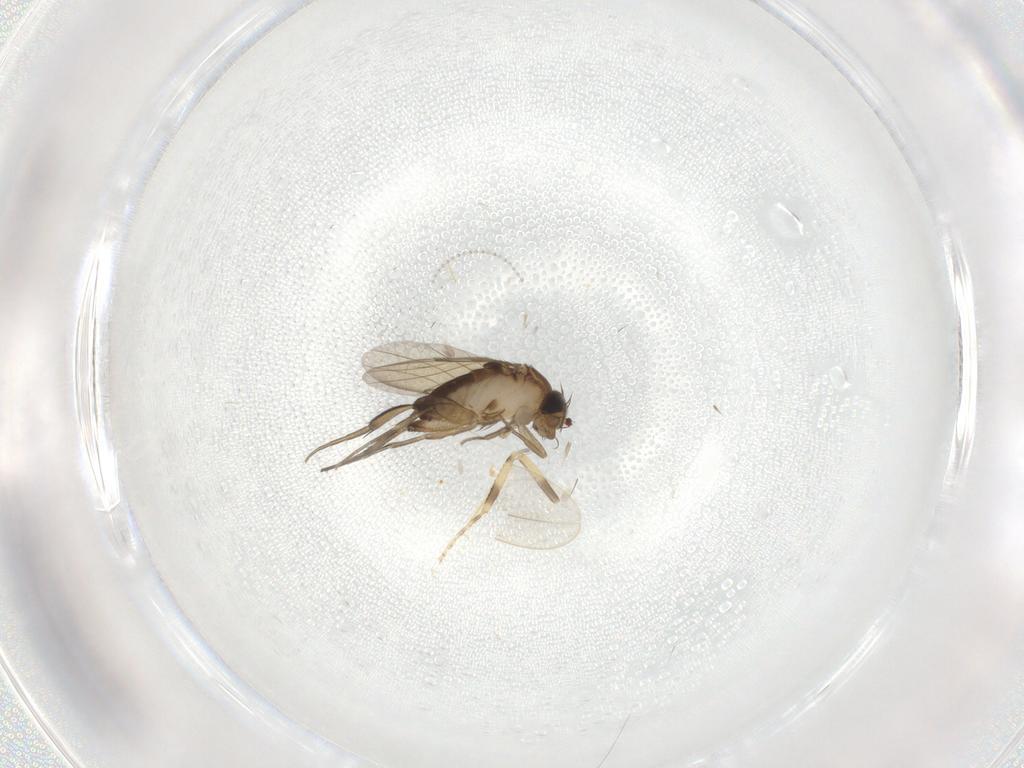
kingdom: Animalia
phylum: Arthropoda
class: Insecta
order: Diptera
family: Phoridae
